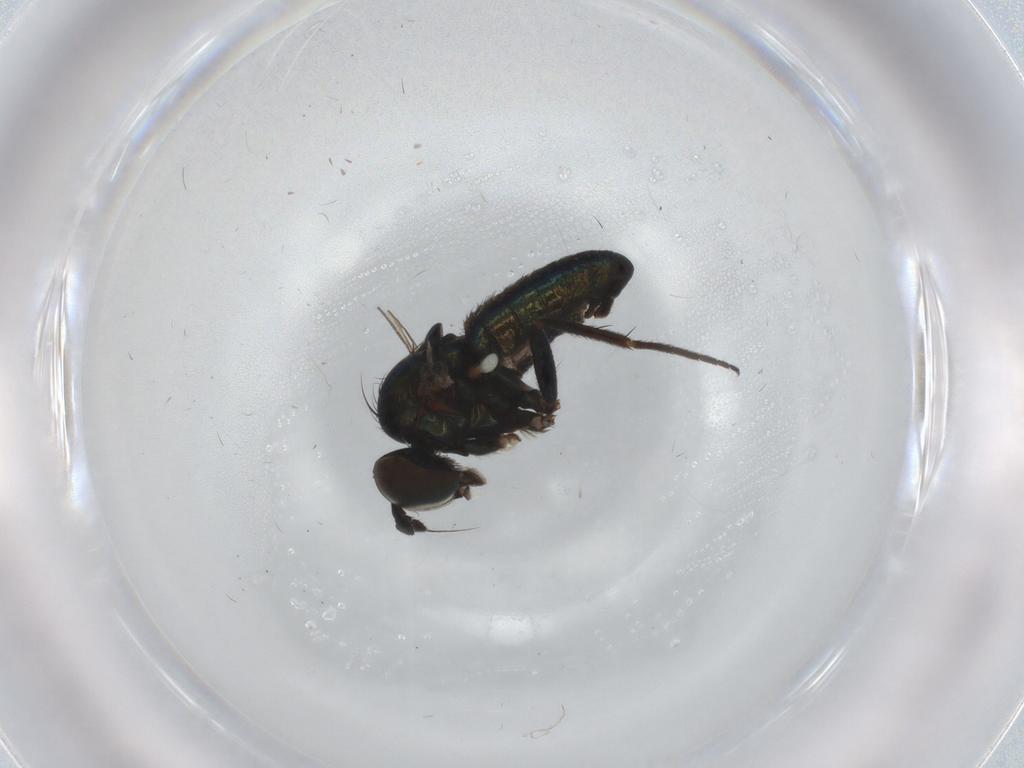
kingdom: Animalia
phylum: Arthropoda
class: Insecta
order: Diptera
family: Dolichopodidae
